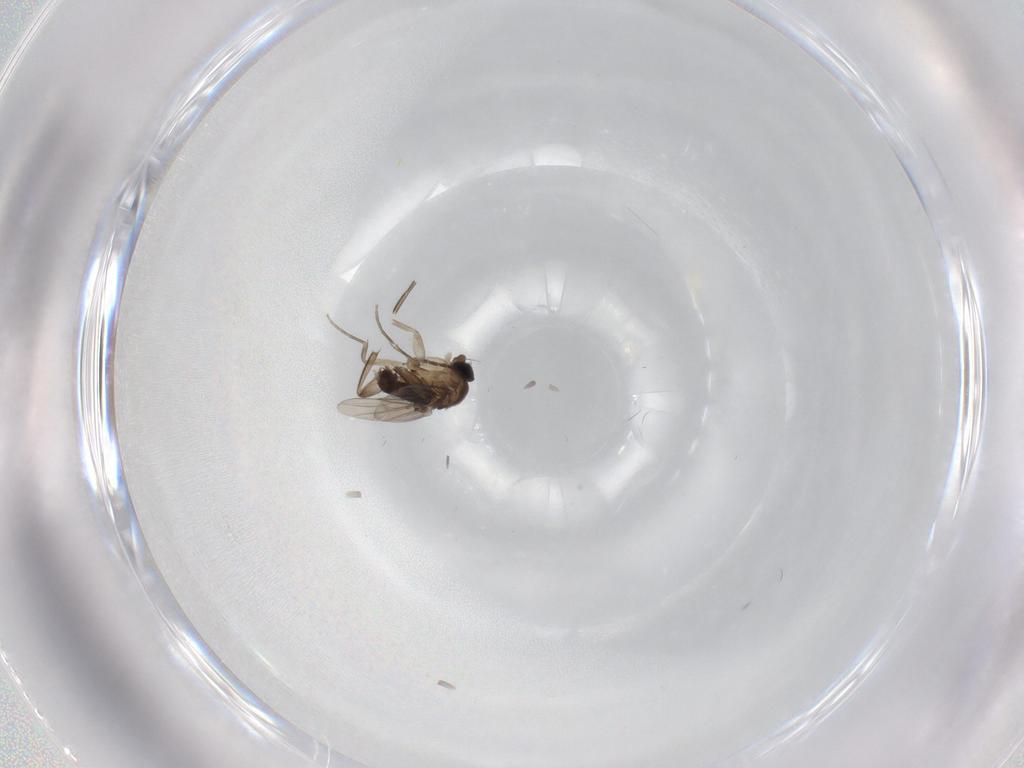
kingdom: Animalia
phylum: Arthropoda
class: Insecta
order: Diptera
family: Phoridae
